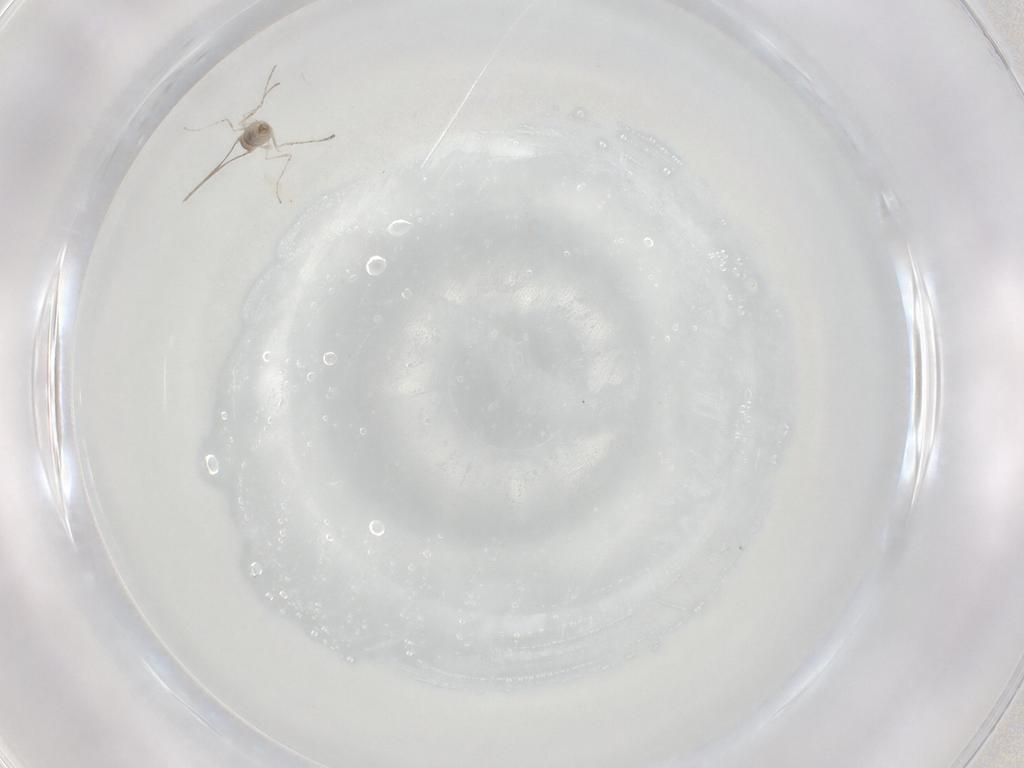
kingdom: Animalia
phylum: Arthropoda
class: Insecta
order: Diptera
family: Cecidomyiidae
